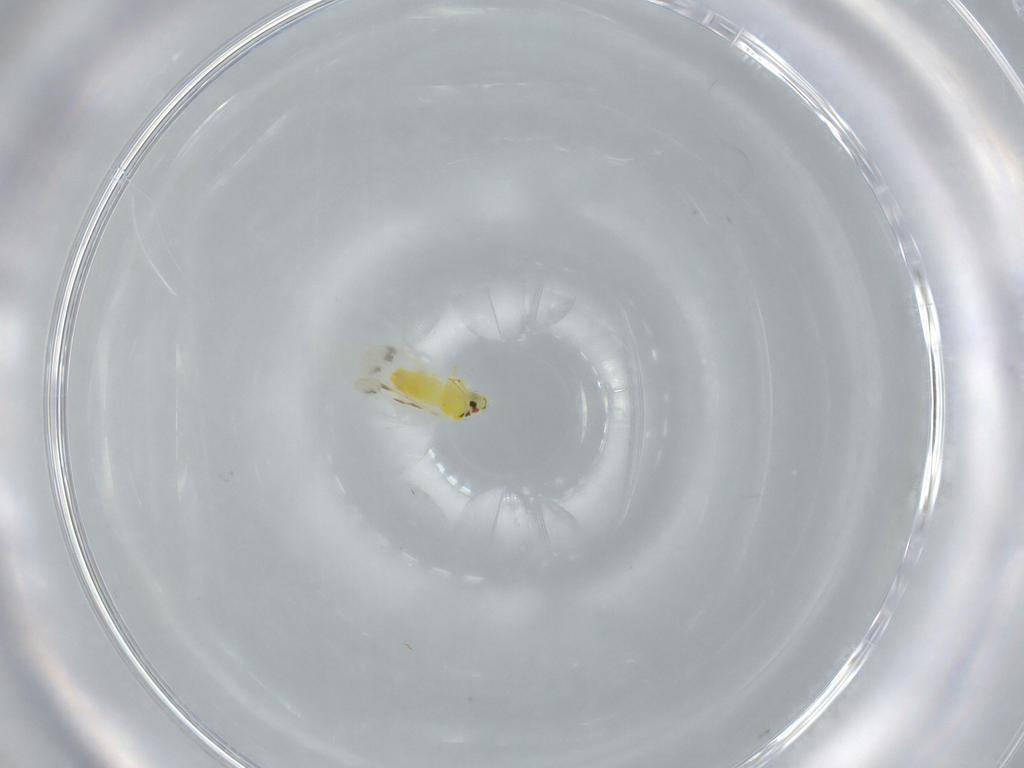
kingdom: Animalia
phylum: Arthropoda
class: Insecta
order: Hemiptera
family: Aleyrodidae
